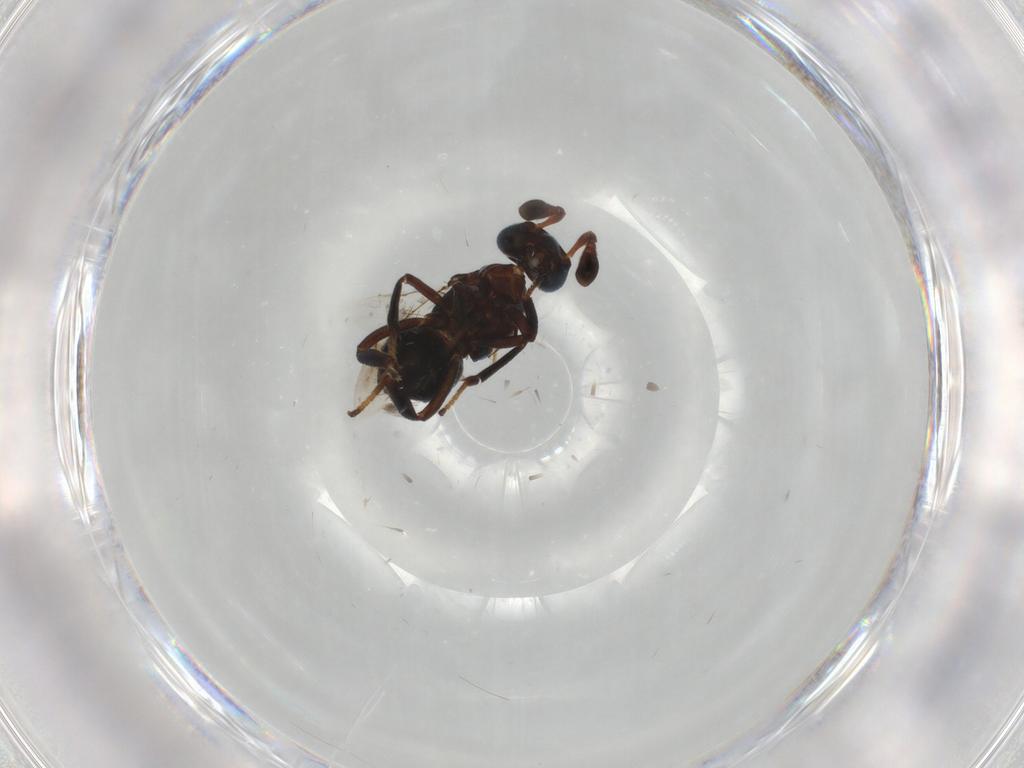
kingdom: Animalia
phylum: Arthropoda
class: Insecta
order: Hymenoptera
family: Encyrtidae
